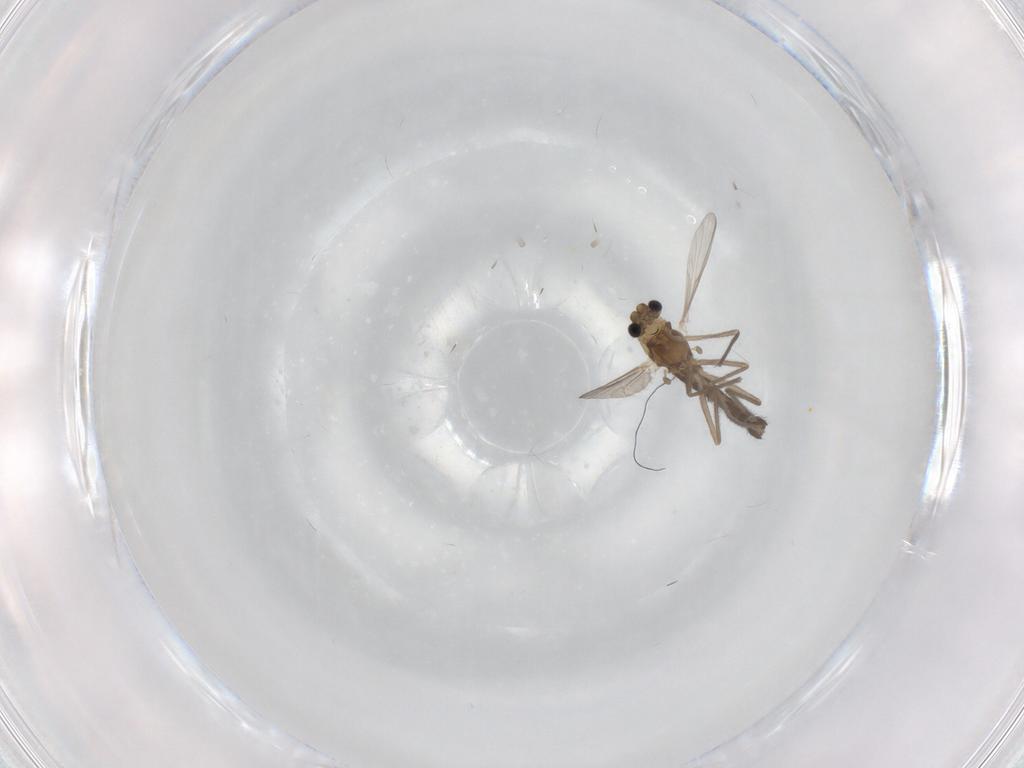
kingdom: Animalia
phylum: Arthropoda
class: Insecta
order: Diptera
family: Chironomidae
